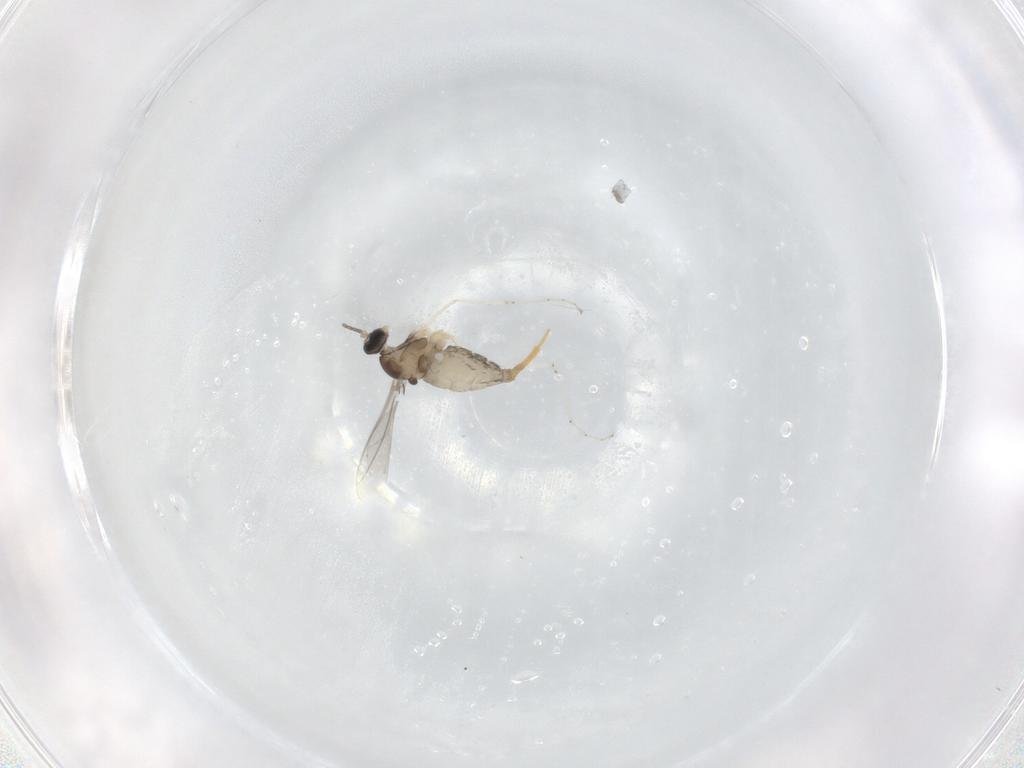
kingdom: Animalia
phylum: Arthropoda
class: Insecta
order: Diptera
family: Cecidomyiidae
